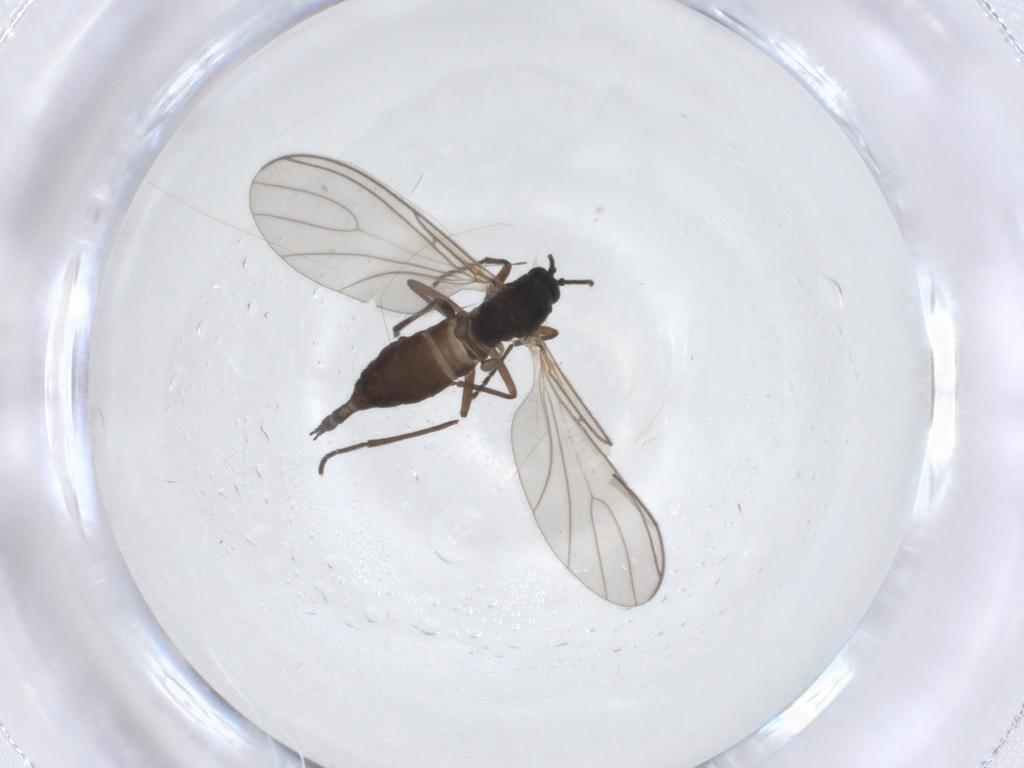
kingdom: Animalia
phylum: Arthropoda
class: Insecta
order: Diptera
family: Sciaridae
